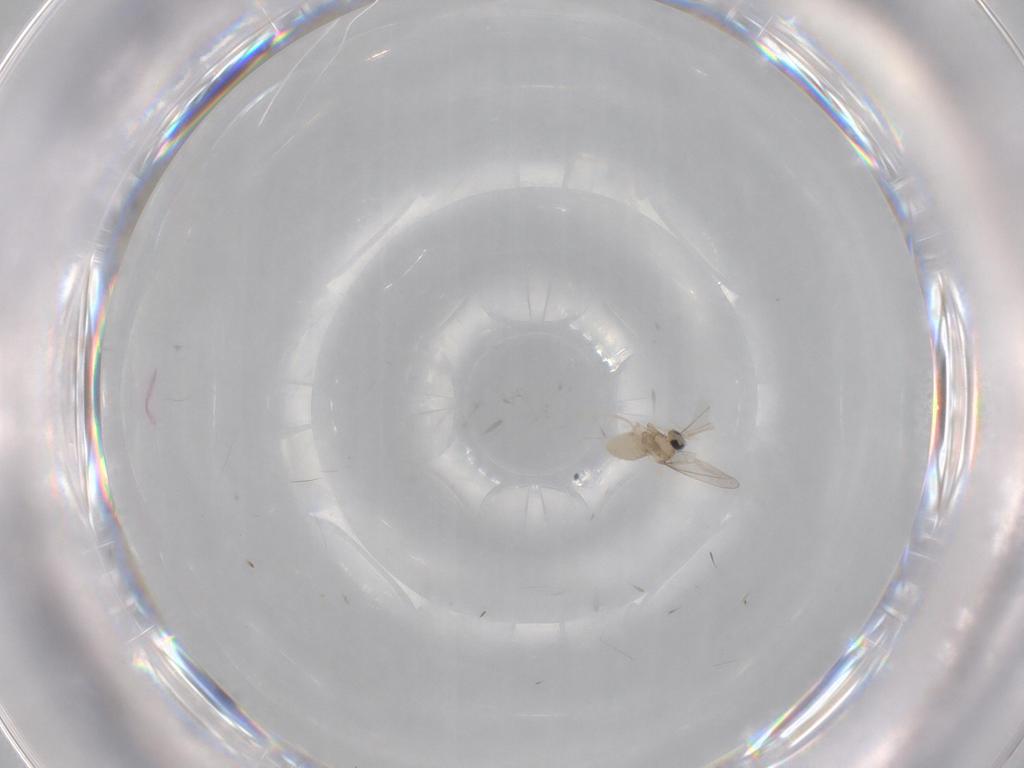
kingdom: Animalia
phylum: Arthropoda
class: Insecta
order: Diptera
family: Cecidomyiidae
